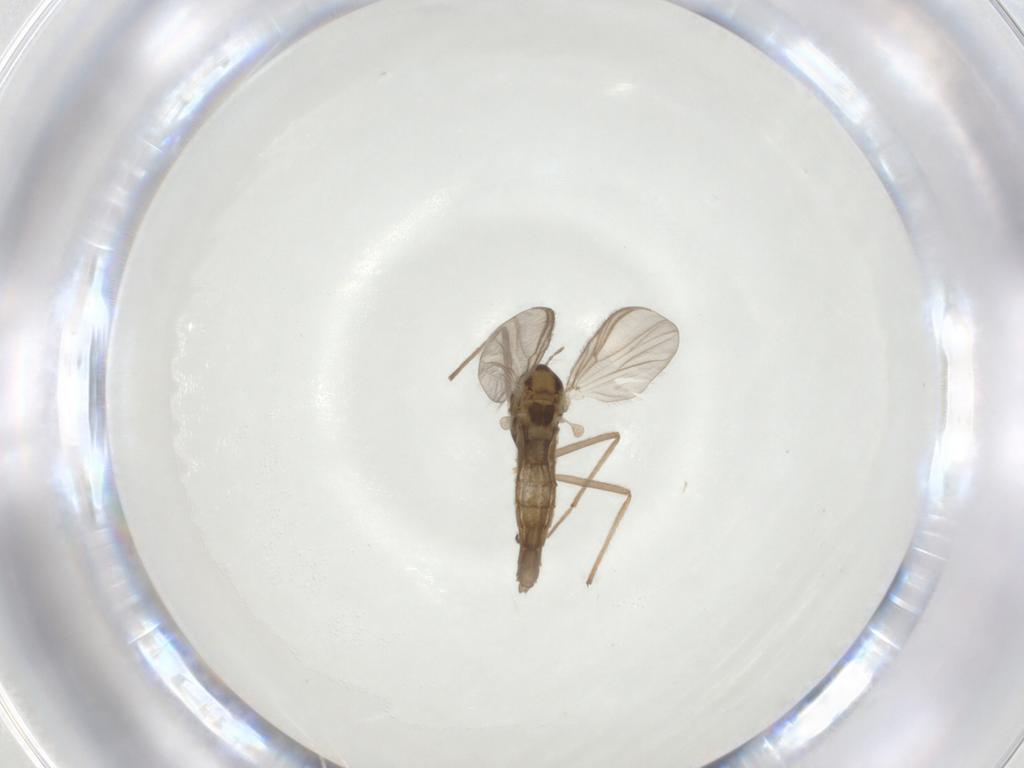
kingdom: Animalia
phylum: Arthropoda
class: Insecta
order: Diptera
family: Chironomidae
